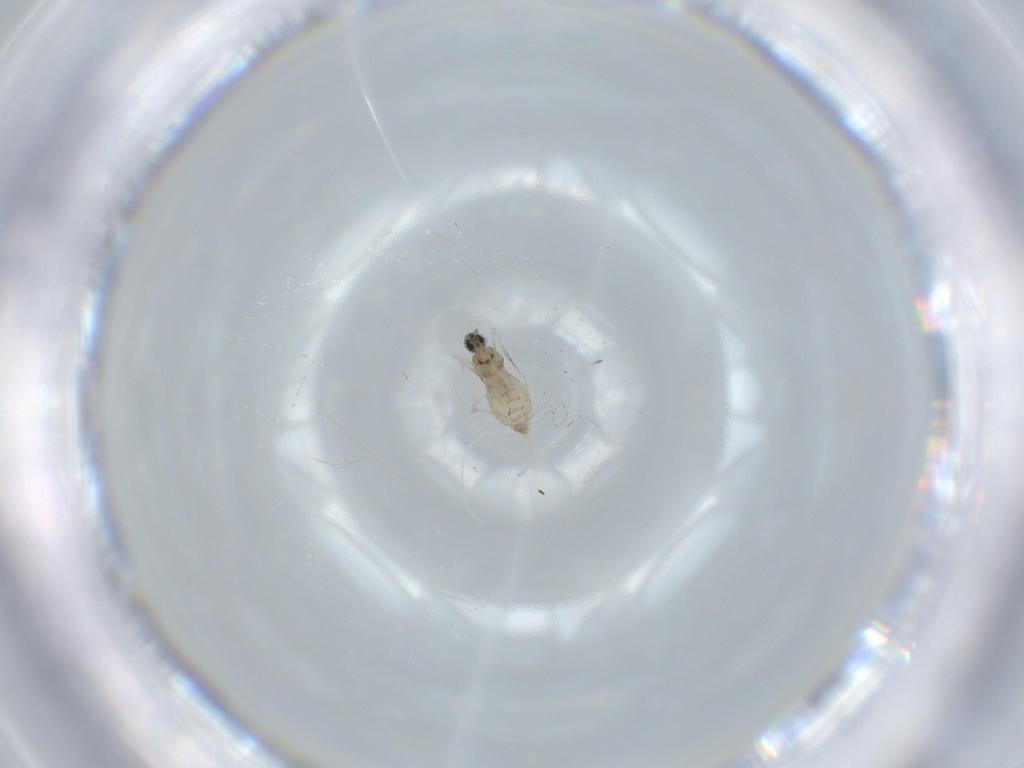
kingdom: Animalia
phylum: Arthropoda
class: Insecta
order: Diptera
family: Cecidomyiidae
